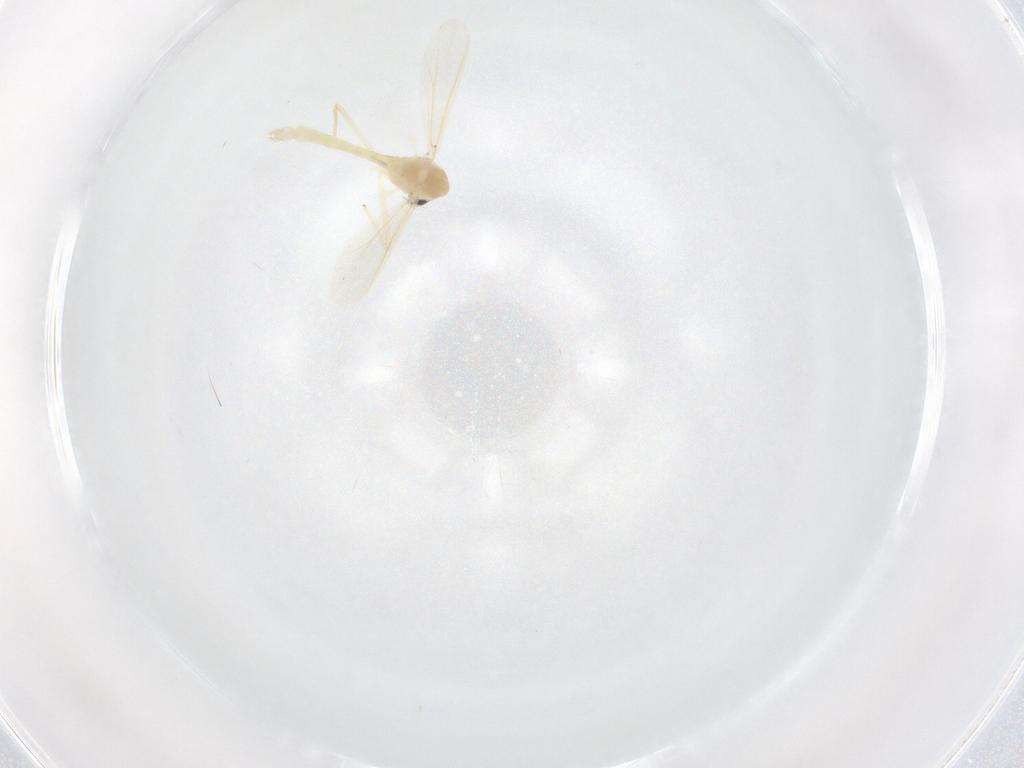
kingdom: Animalia
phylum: Arthropoda
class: Insecta
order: Diptera
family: Chironomidae
